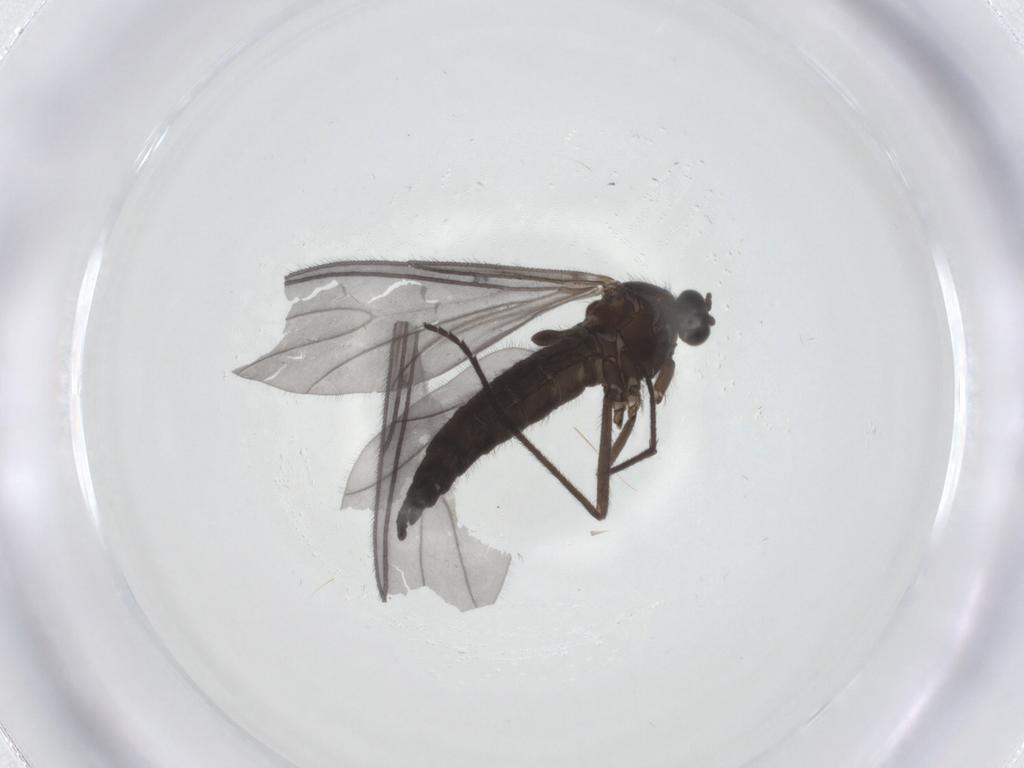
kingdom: Animalia
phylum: Arthropoda
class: Insecta
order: Diptera
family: Sciaridae
